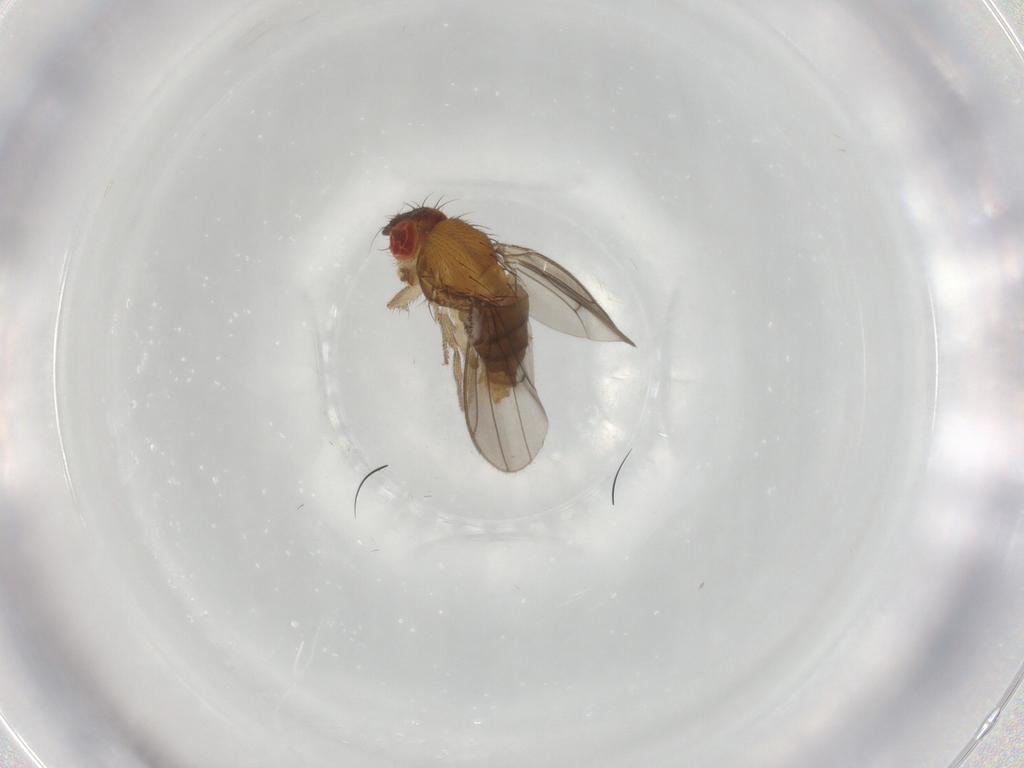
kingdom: Animalia
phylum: Arthropoda
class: Insecta
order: Diptera
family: Drosophilidae
